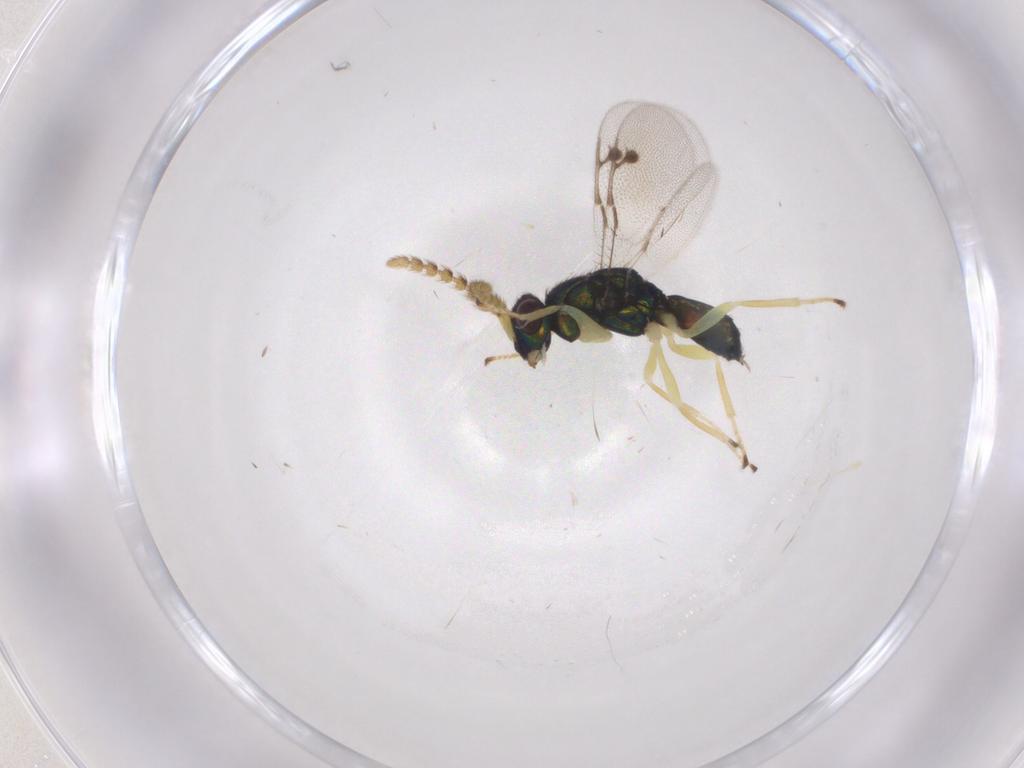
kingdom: Animalia
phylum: Arthropoda
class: Insecta
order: Hymenoptera
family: Pirenidae
